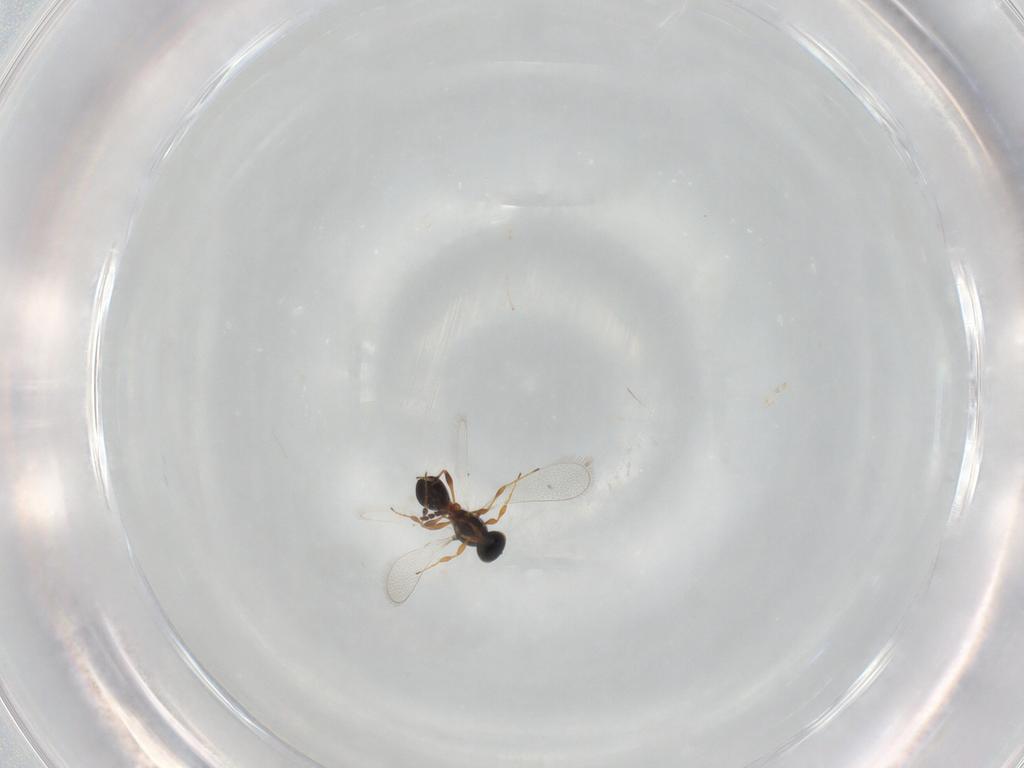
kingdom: Animalia
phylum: Arthropoda
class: Insecta
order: Hymenoptera
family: Platygastridae
